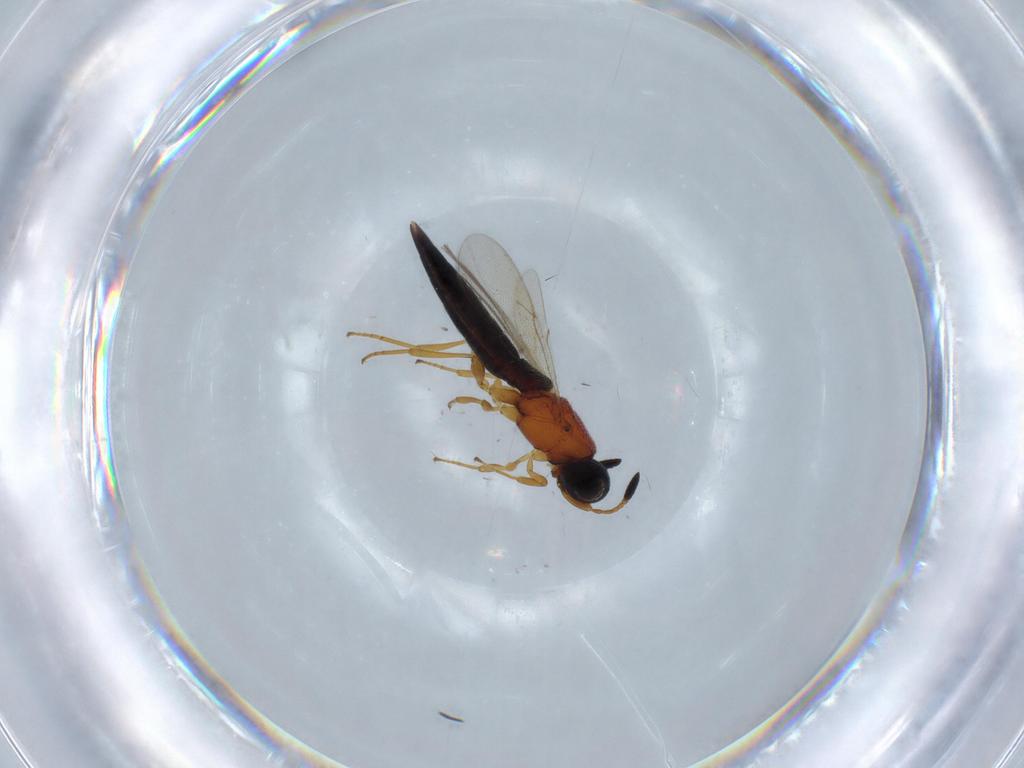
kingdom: Animalia
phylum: Arthropoda
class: Insecta
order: Hymenoptera
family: Scelionidae
